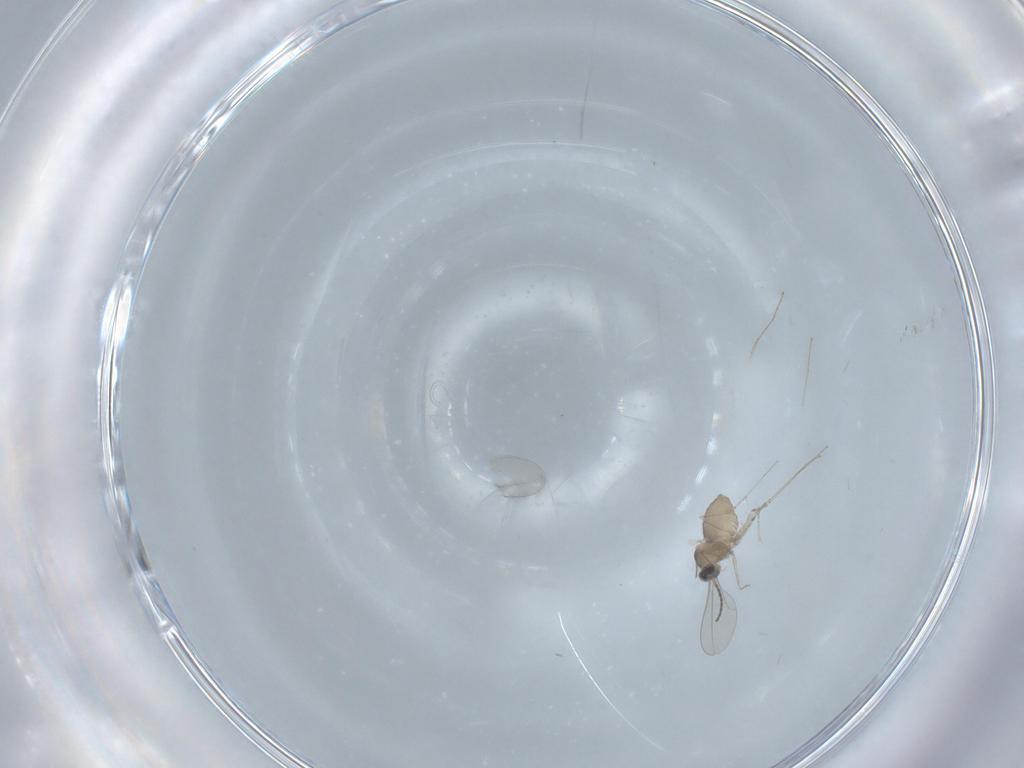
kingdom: Animalia
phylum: Arthropoda
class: Insecta
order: Diptera
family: Cecidomyiidae
